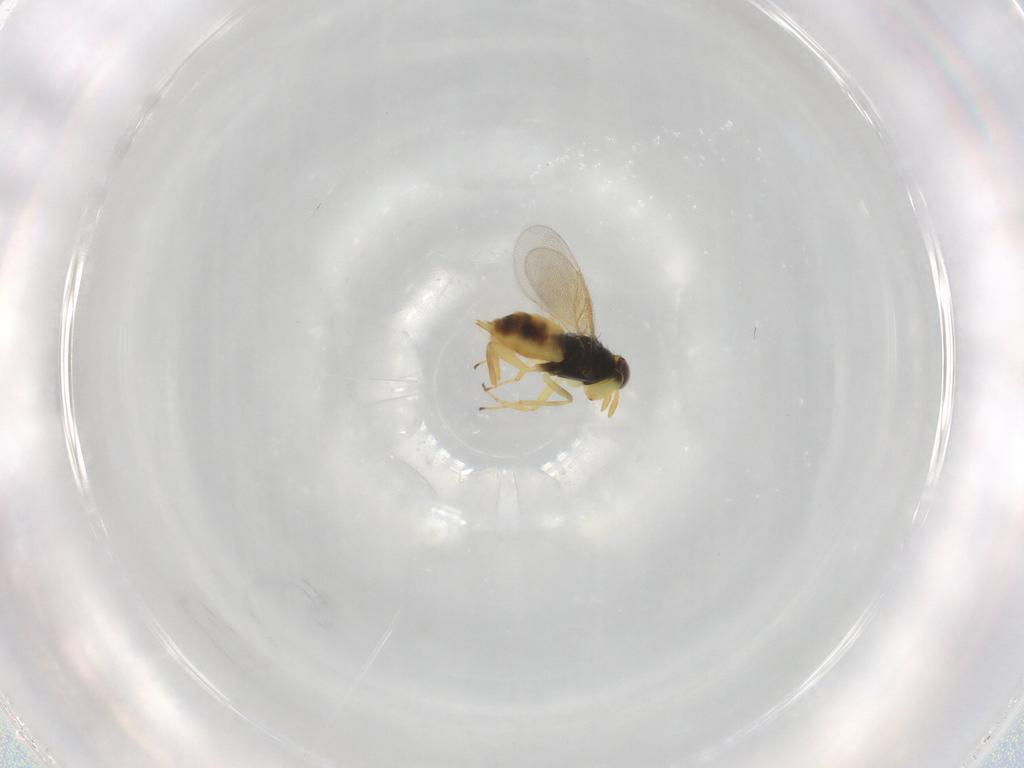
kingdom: Animalia
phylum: Arthropoda
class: Insecta
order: Hymenoptera
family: Aphelinidae
